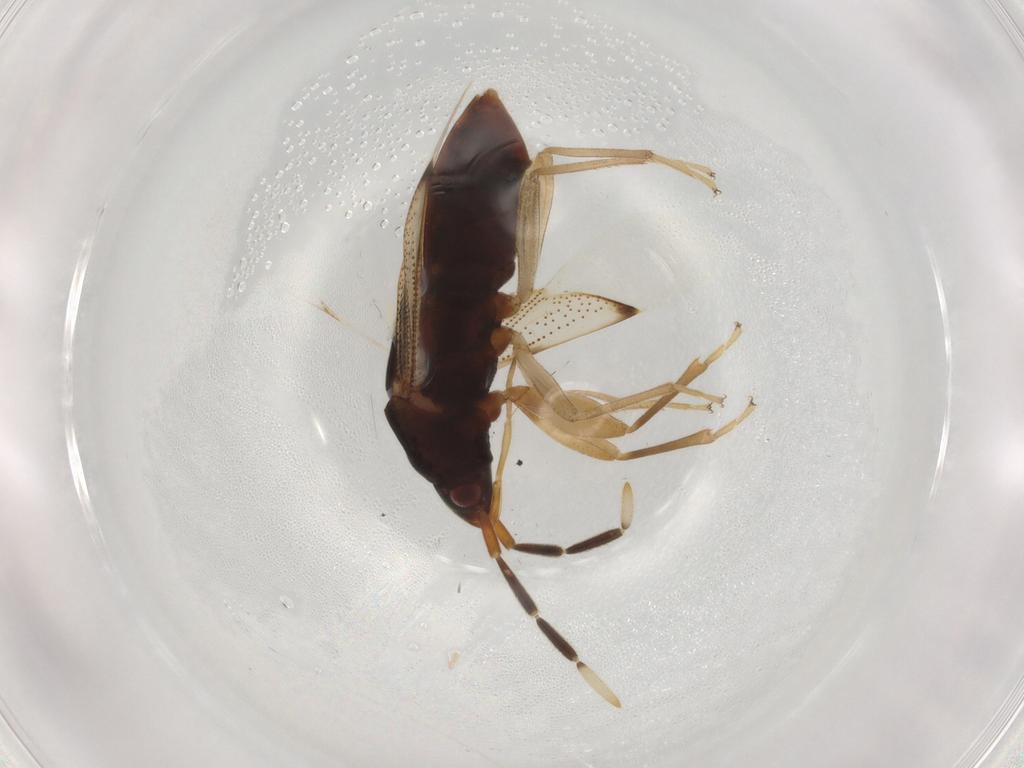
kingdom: Animalia
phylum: Arthropoda
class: Insecta
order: Hemiptera
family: Rhyparochromidae
